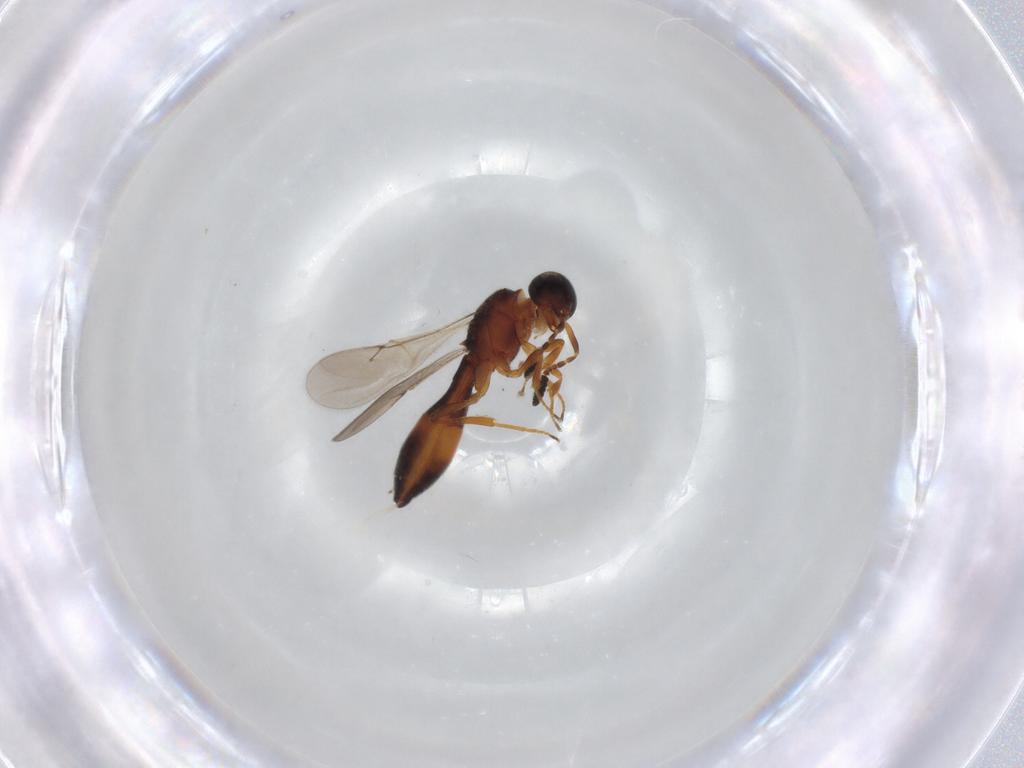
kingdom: Animalia
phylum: Arthropoda
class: Insecta
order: Hymenoptera
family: Scelionidae
